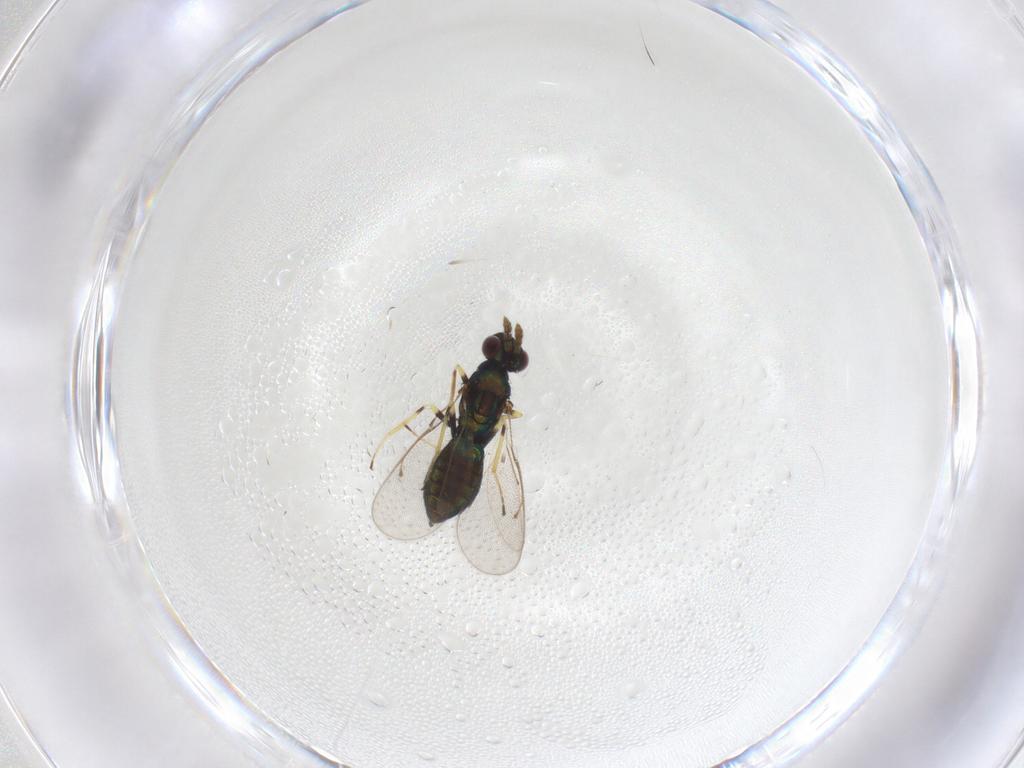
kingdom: Animalia
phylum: Arthropoda
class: Insecta
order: Hymenoptera
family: Eulophidae
